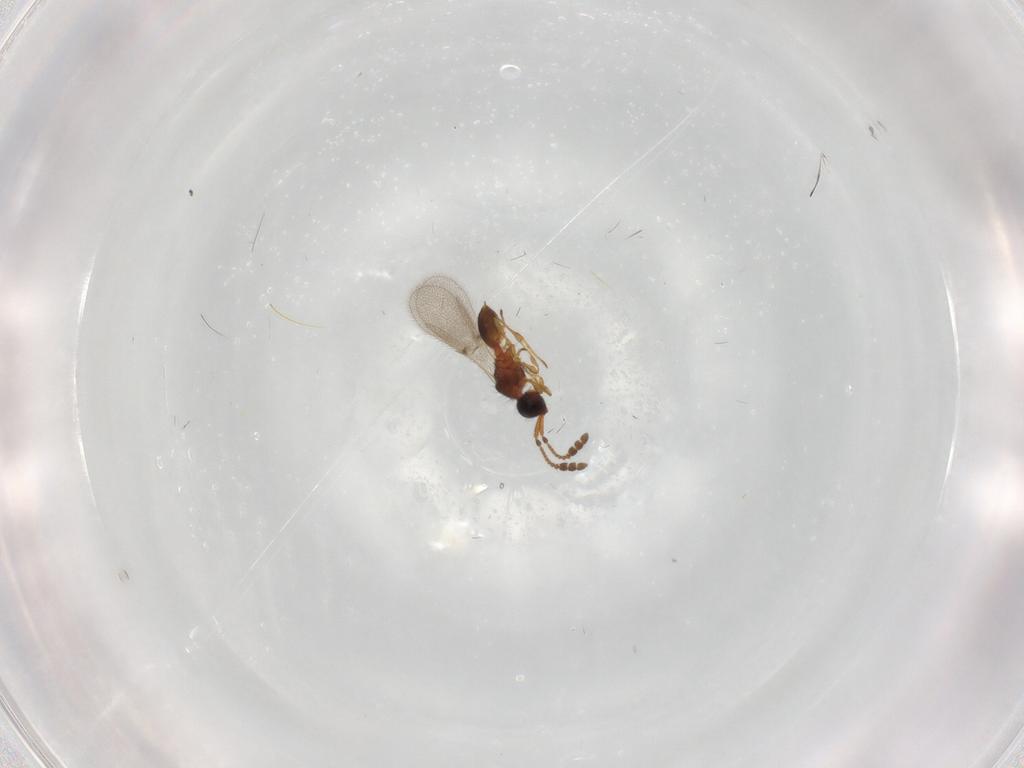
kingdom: Animalia
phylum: Arthropoda
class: Insecta
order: Hymenoptera
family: Diapriidae
